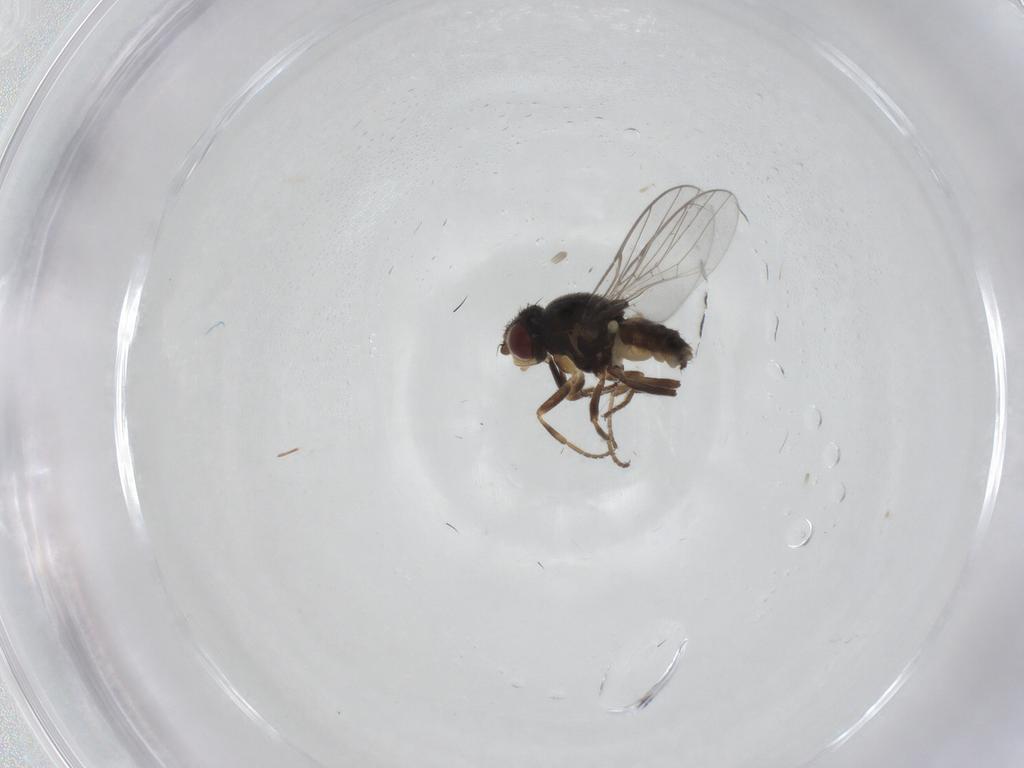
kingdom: Animalia
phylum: Arthropoda
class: Insecta
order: Diptera
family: Chloropidae
